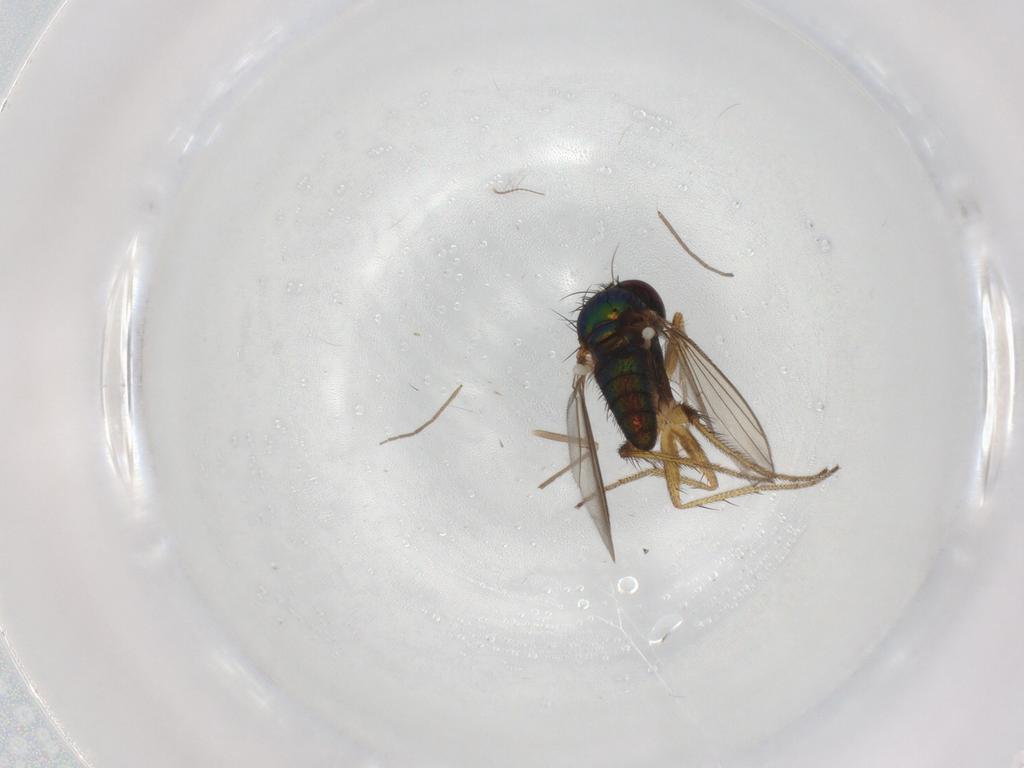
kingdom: Animalia
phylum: Arthropoda
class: Insecta
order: Diptera
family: Dolichopodidae
